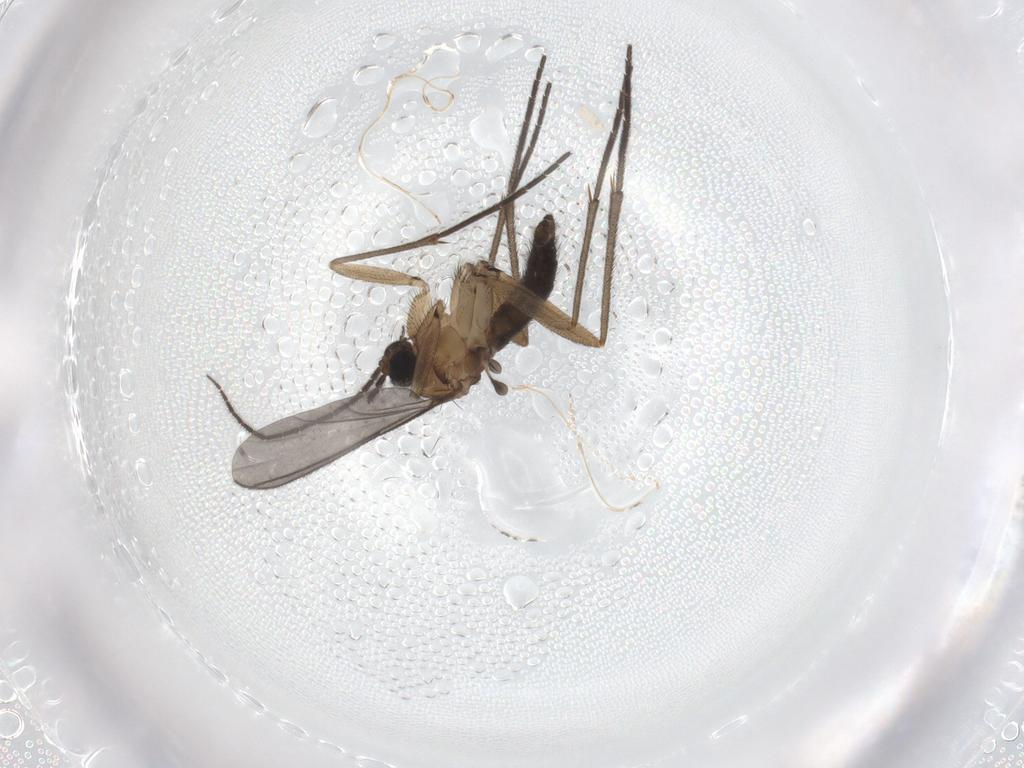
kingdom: Animalia
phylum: Arthropoda
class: Insecta
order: Diptera
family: Sciaridae
